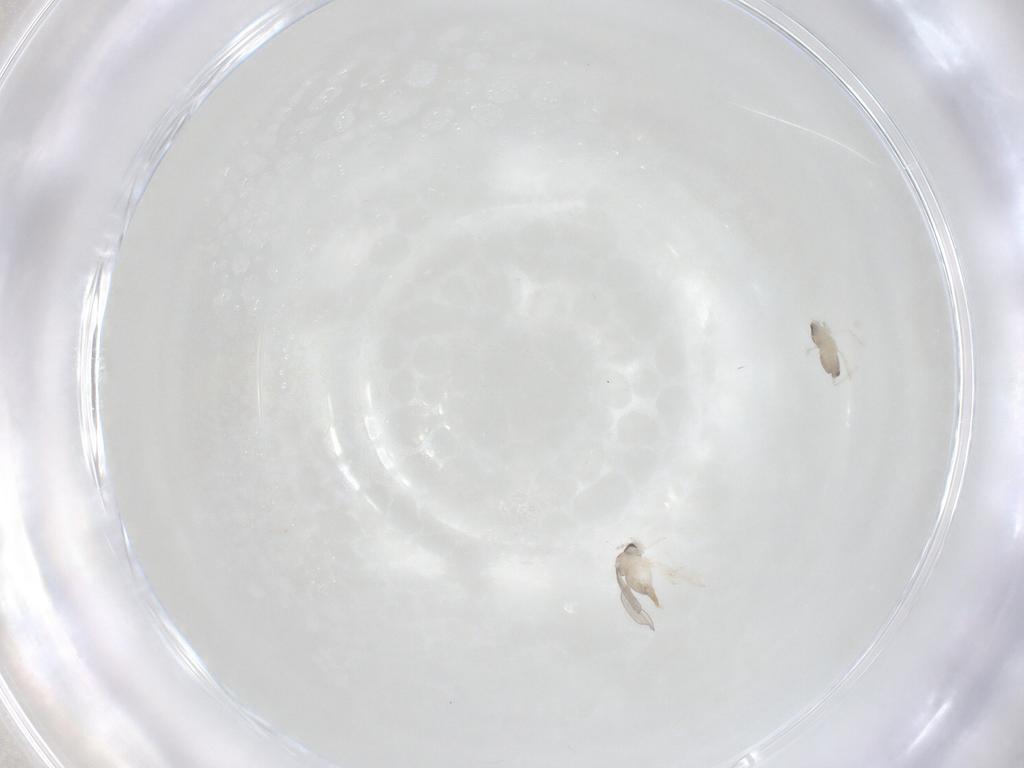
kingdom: Animalia
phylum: Arthropoda
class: Insecta
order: Diptera
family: Cecidomyiidae
